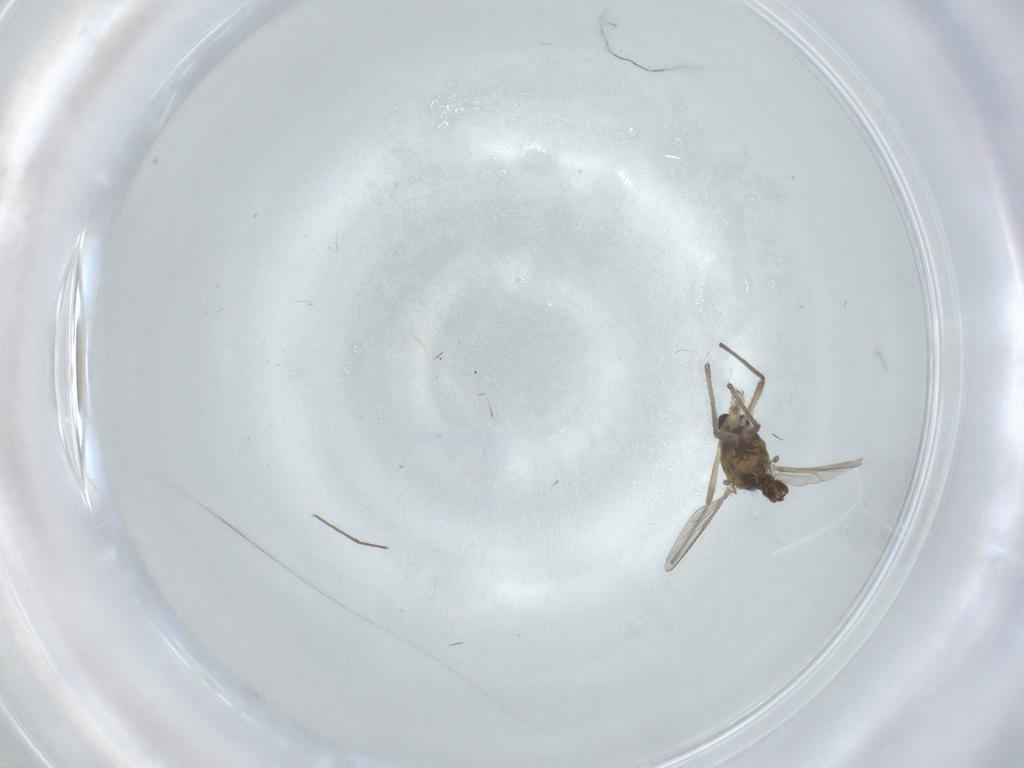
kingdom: Animalia
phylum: Arthropoda
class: Insecta
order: Diptera
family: Chironomidae
